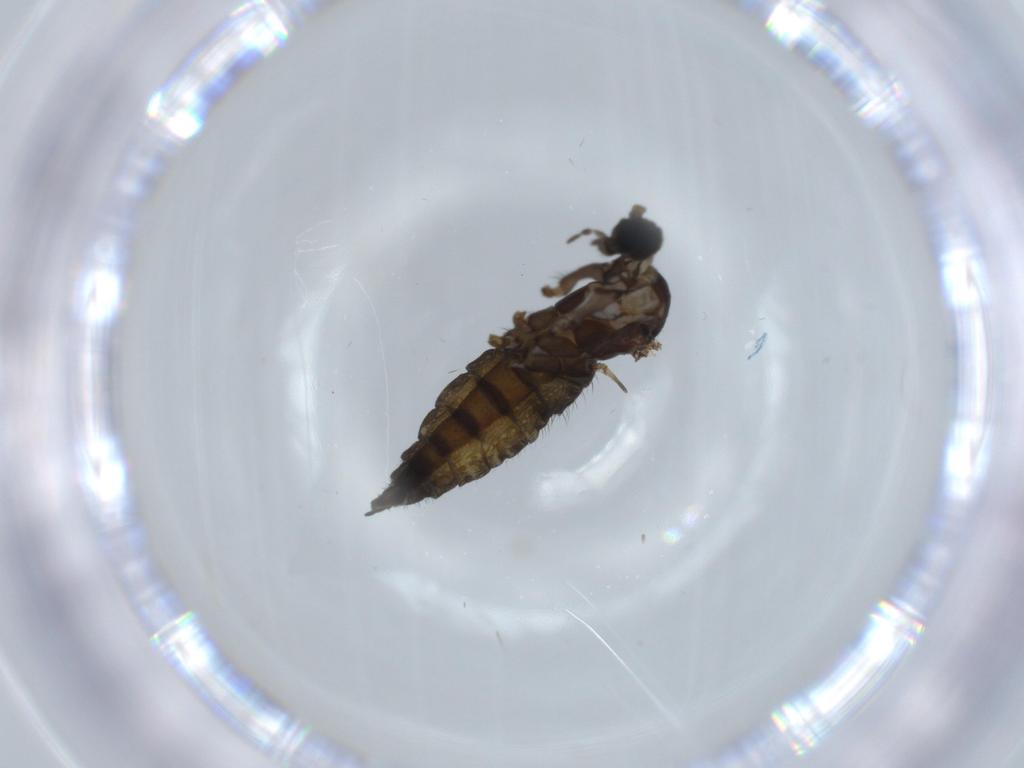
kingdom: Animalia
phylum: Arthropoda
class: Insecta
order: Diptera
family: Sciaridae
